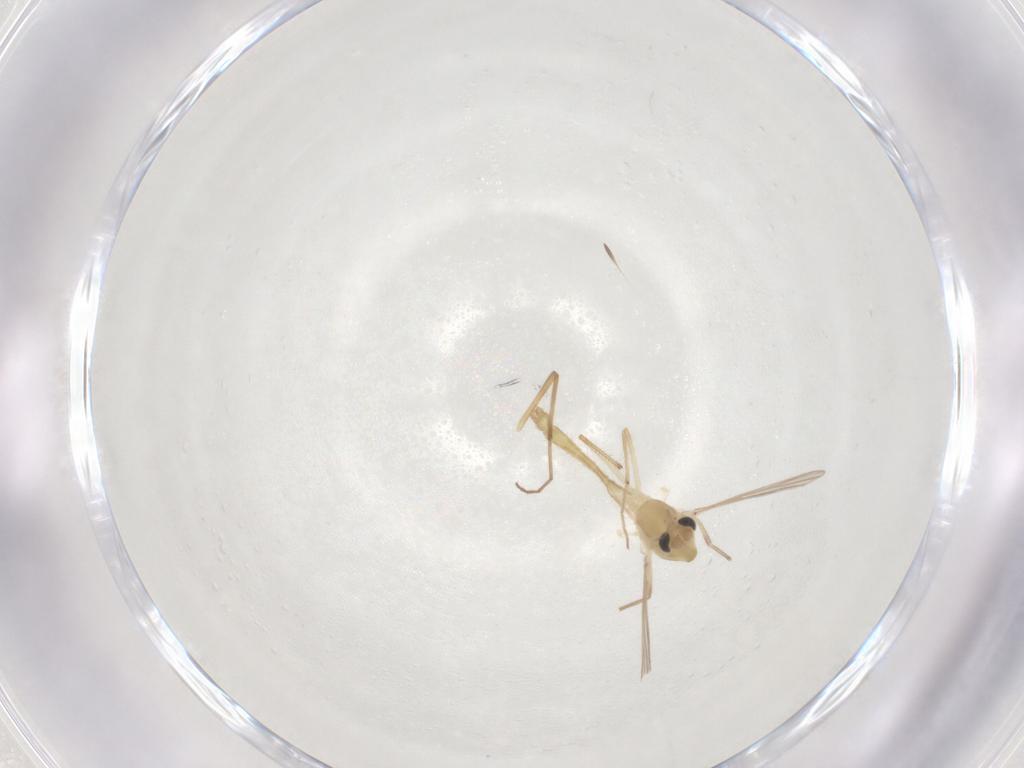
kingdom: Animalia
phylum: Arthropoda
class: Insecta
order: Diptera
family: Chironomidae
